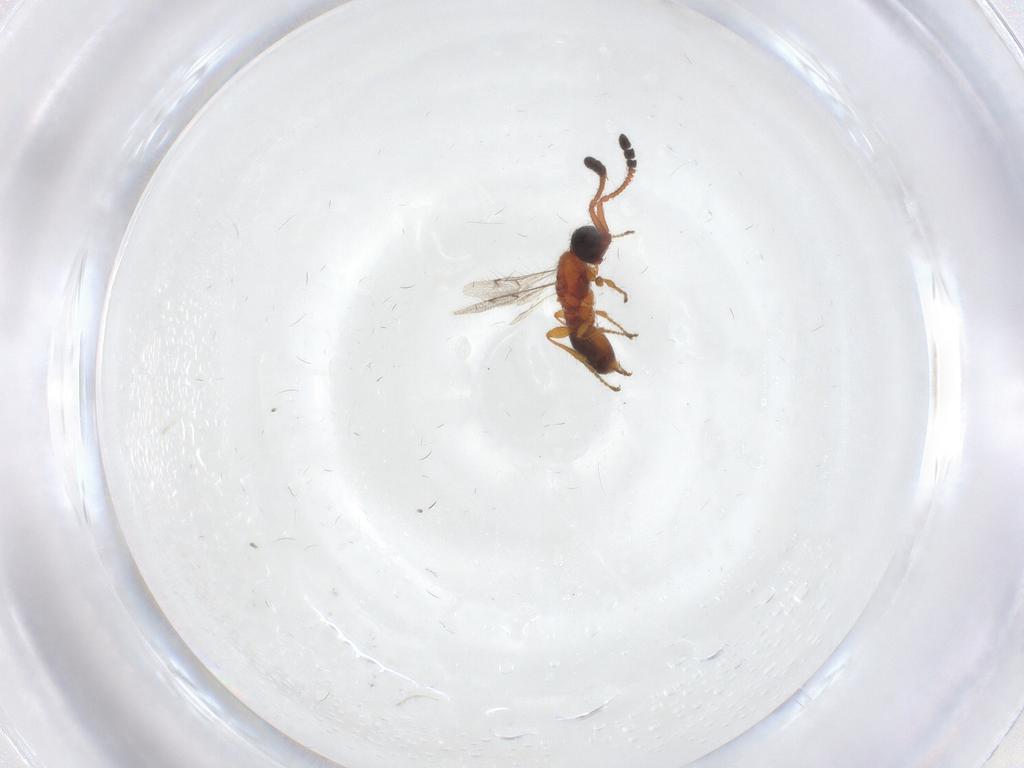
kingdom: Animalia
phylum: Arthropoda
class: Insecta
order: Hymenoptera
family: Diapriidae
